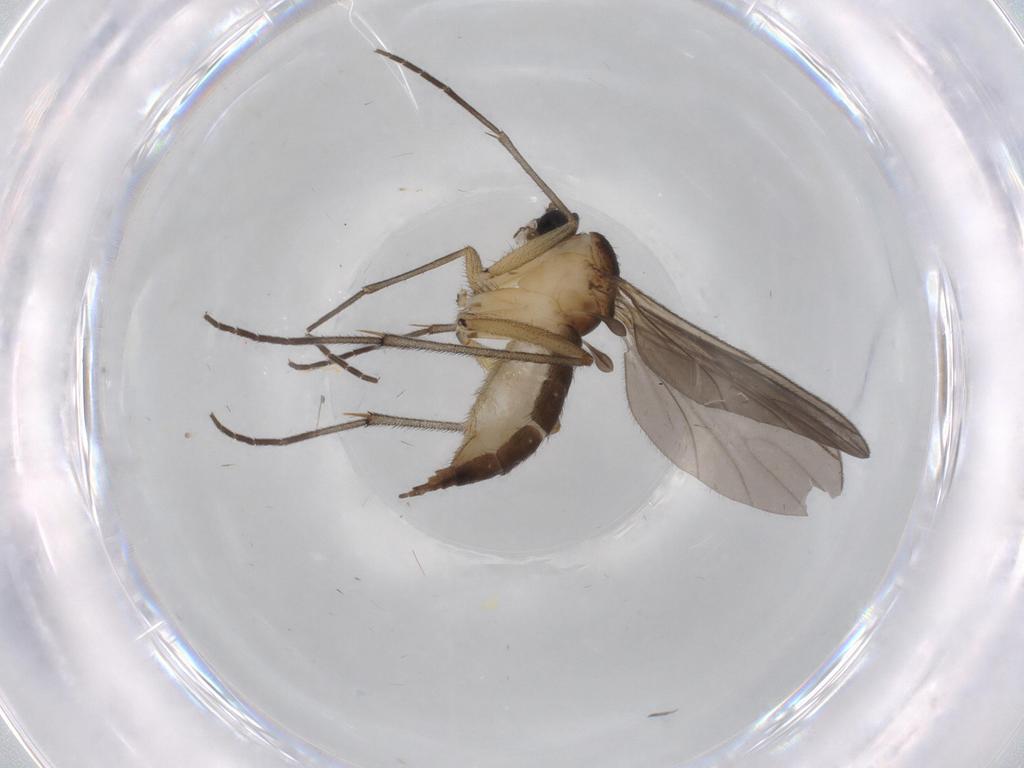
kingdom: Animalia
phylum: Arthropoda
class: Insecta
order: Diptera
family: Sciaridae
